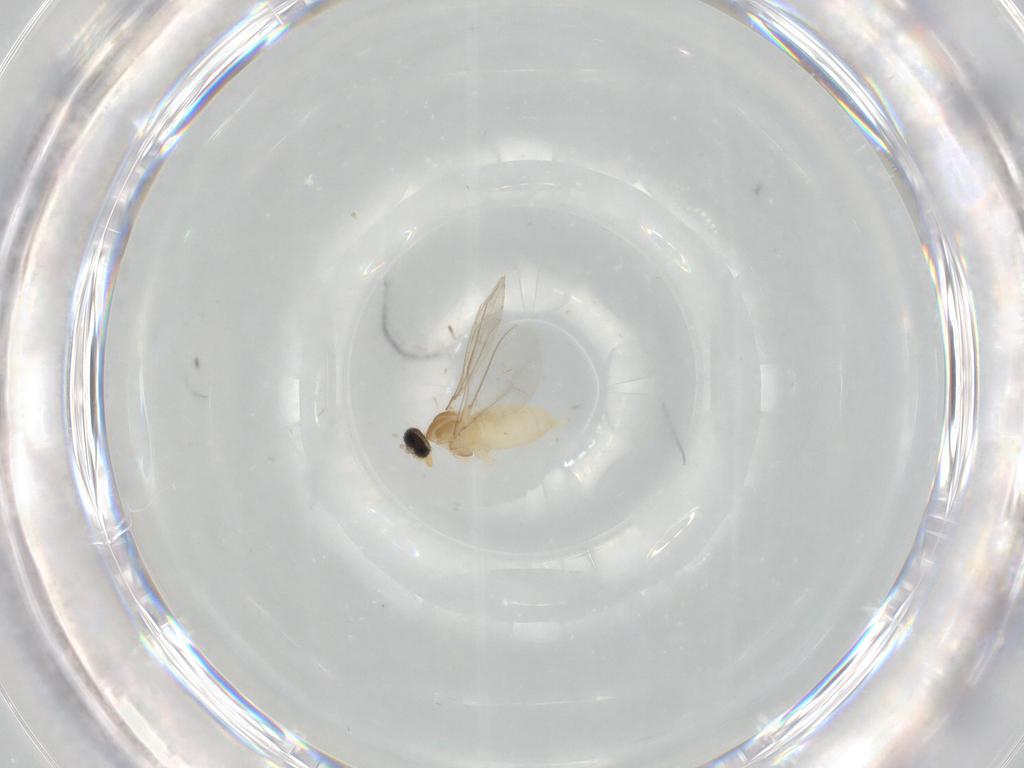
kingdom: Animalia
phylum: Arthropoda
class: Insecta
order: Diptera
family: Cecidomyiidae
